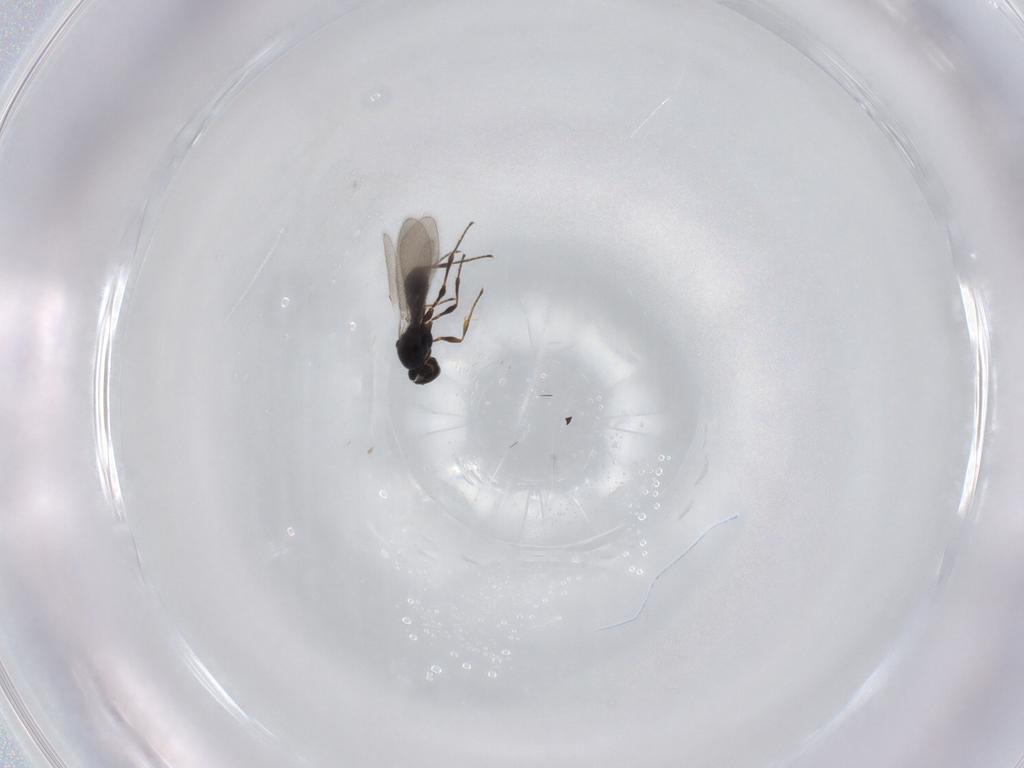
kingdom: Animalia
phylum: Arthropoda
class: Insecta
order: Hymenoptera
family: Platygastridae
